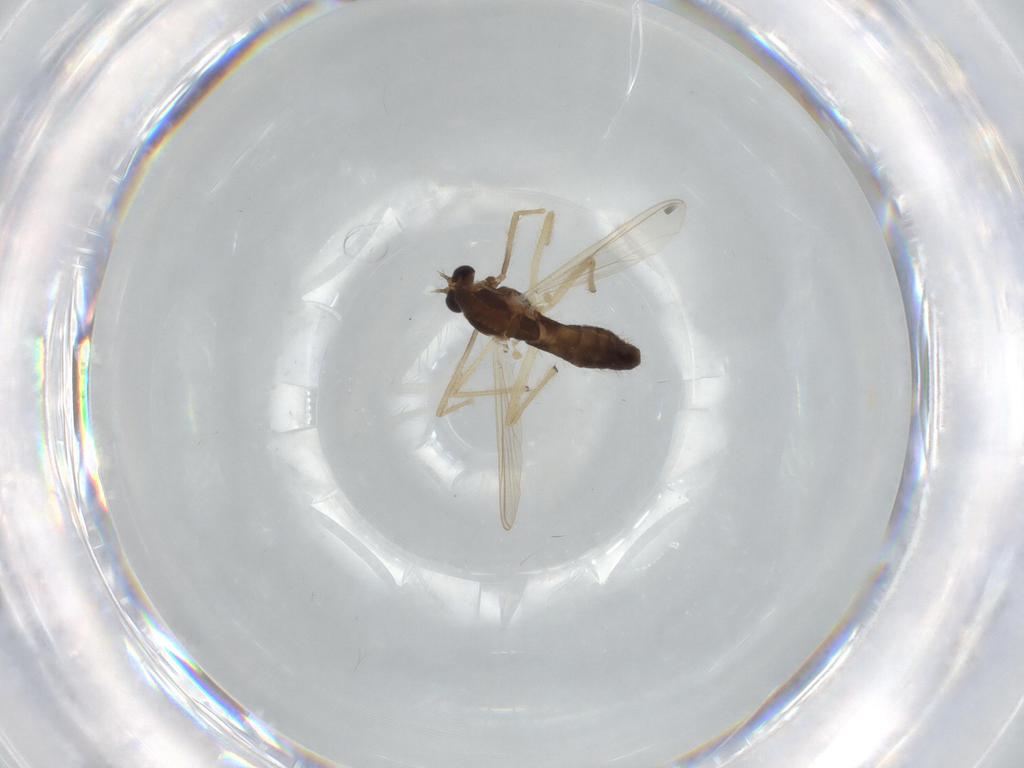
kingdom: Animalia
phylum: Arthropoda
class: Insecta
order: Diptera
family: Chironomidae
